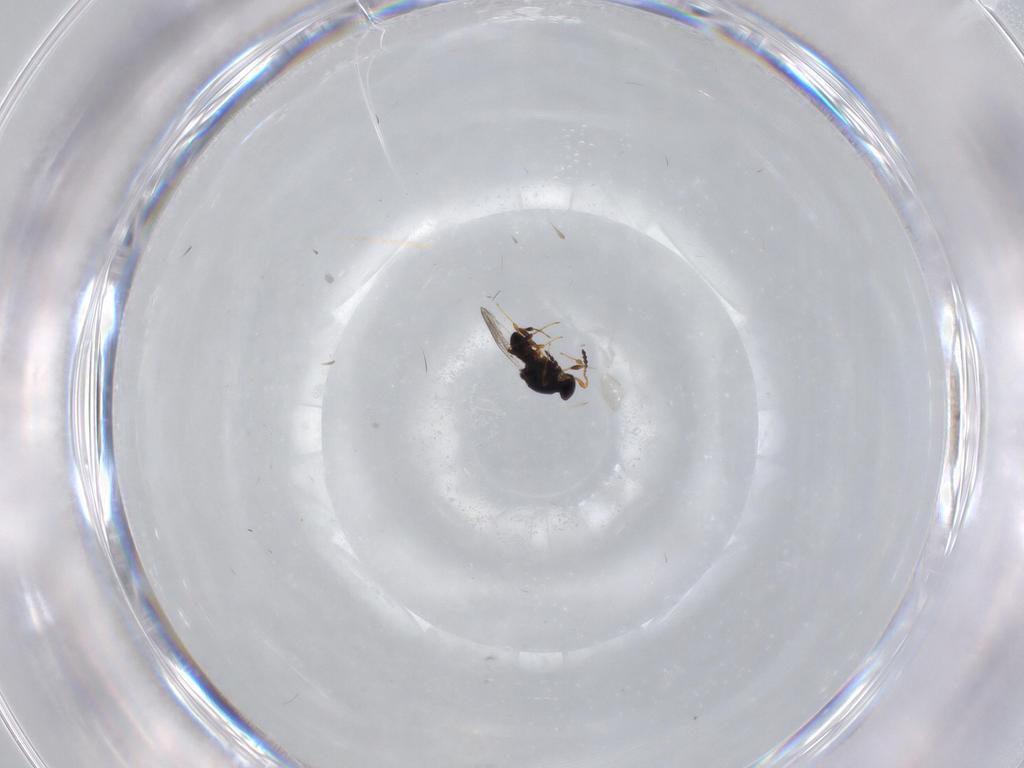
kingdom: Animalia
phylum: Arthropoda
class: Insecta
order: Hymenoptera
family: Platygastridae
